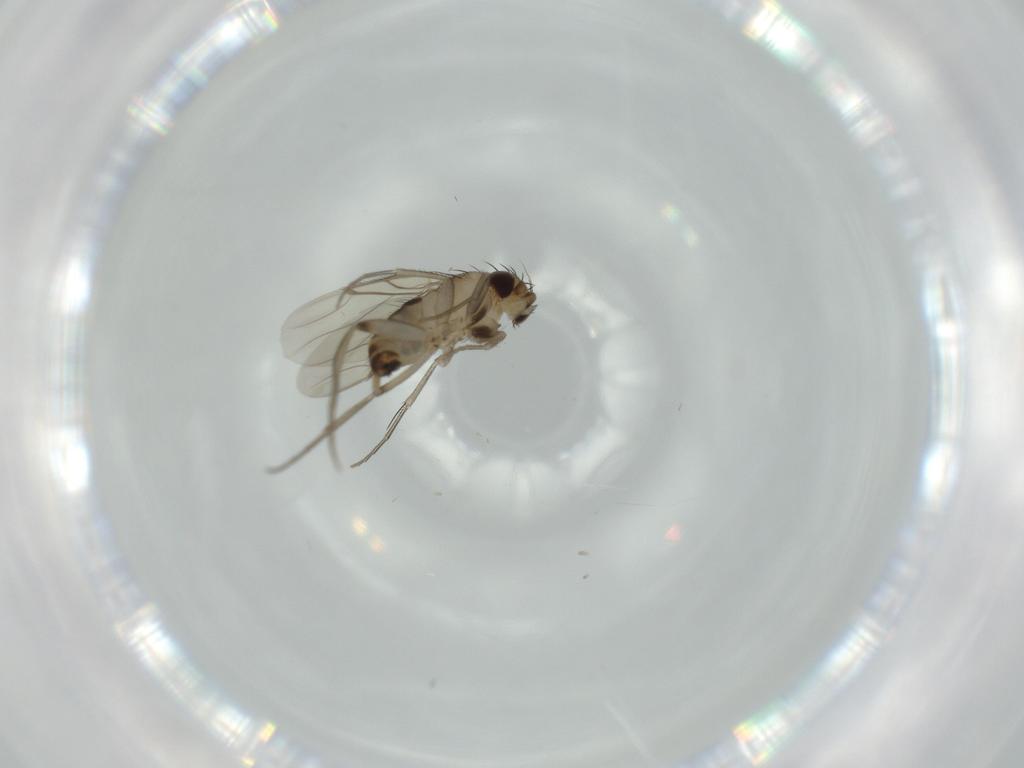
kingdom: Animalia
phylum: Arthropoda
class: Insecta
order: Diptera
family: Phoridae
